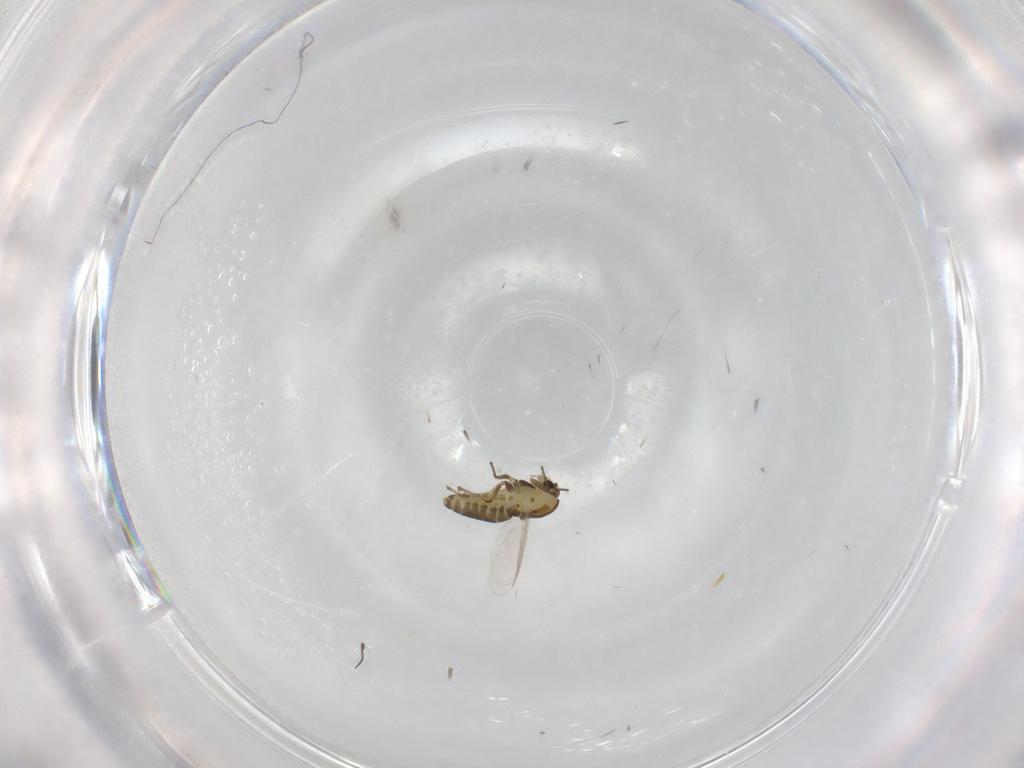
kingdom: Animalia
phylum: Arthropoda
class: Insecta
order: Diptera
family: Chironomidae
